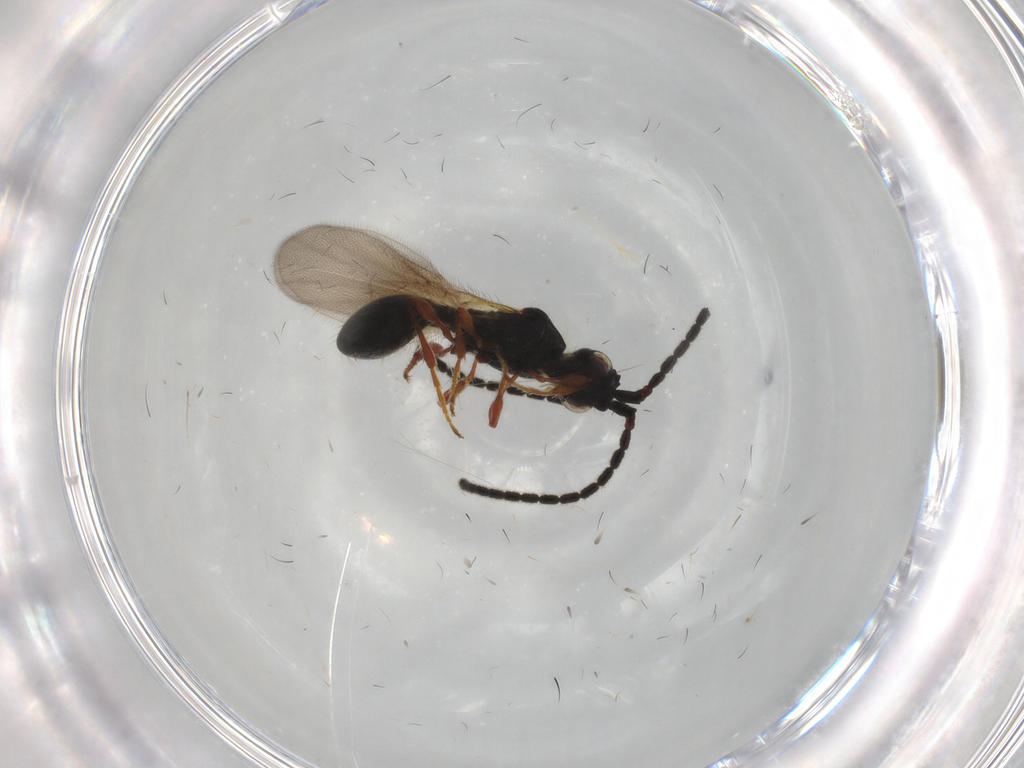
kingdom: Animalia
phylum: Arthropoda
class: Insecta
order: Hymenoptera
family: Diapriidae
